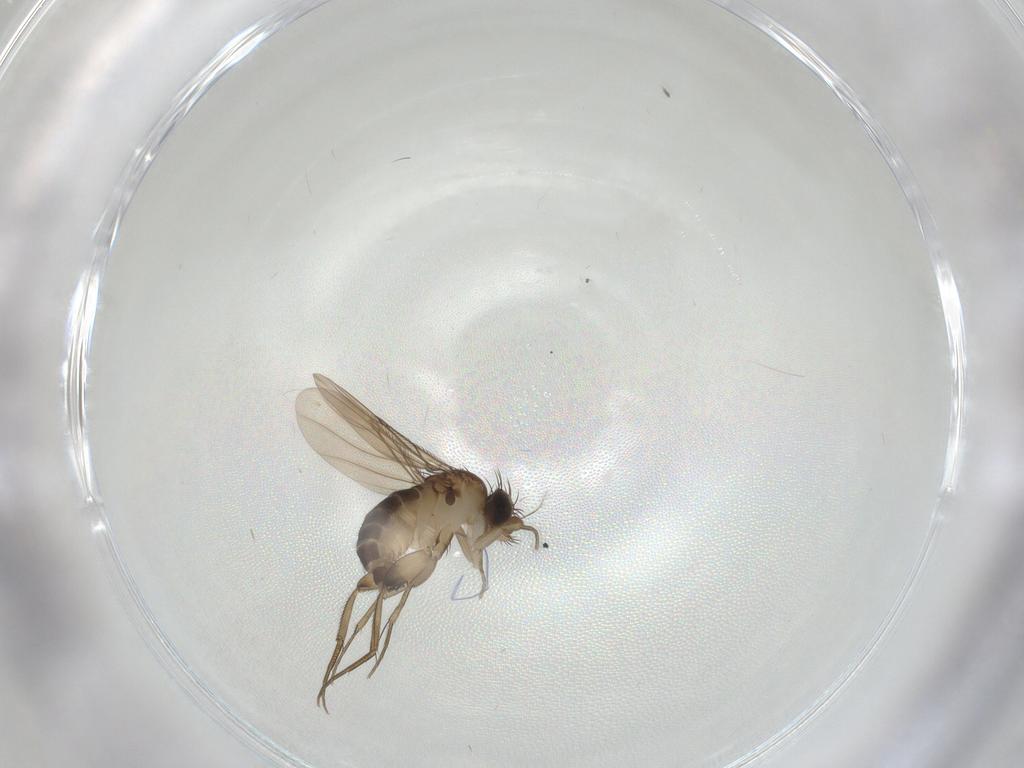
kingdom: Animalia
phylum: Arthropoda
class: Insecta
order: Diptera
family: Phoridae
